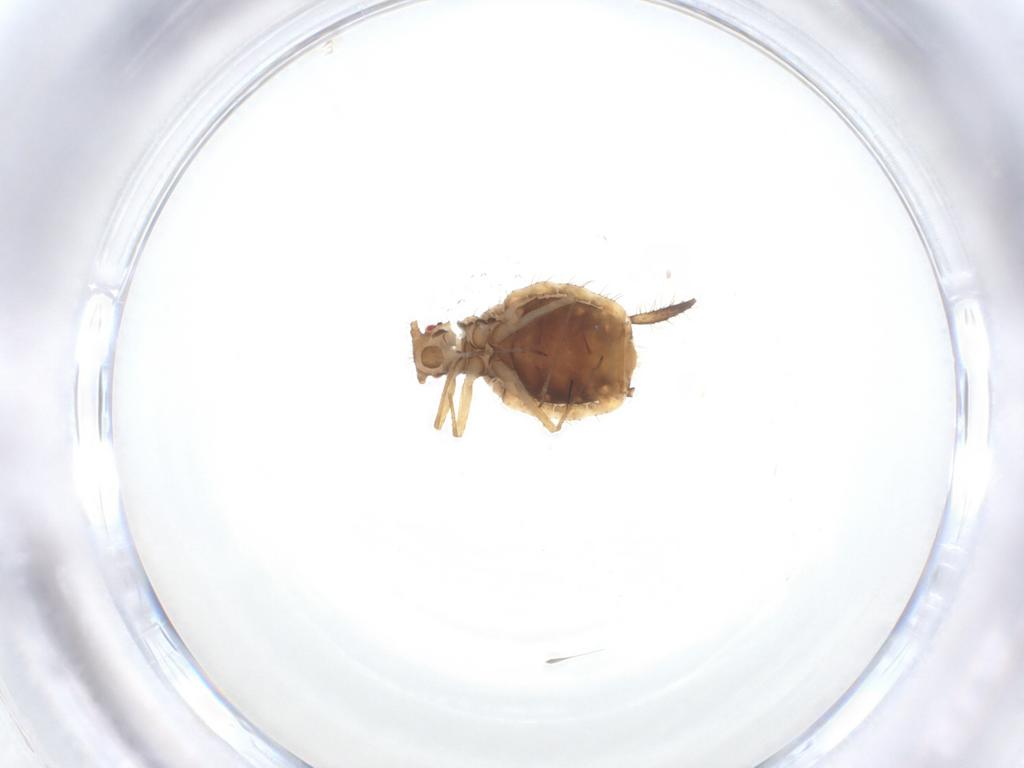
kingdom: Animalia
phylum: Arthropoda
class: Insecta
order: Hemiptera
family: Aphididae
